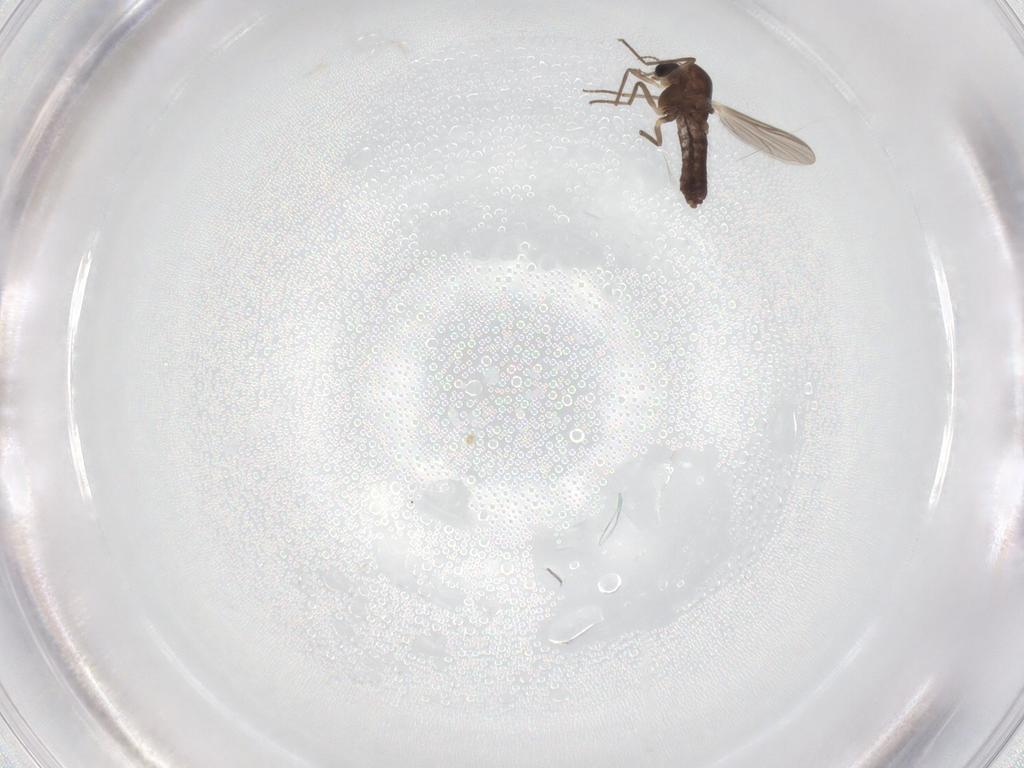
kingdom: Animalia
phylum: Arthropoda
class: Insecta
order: Diptera
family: Chironomidae
